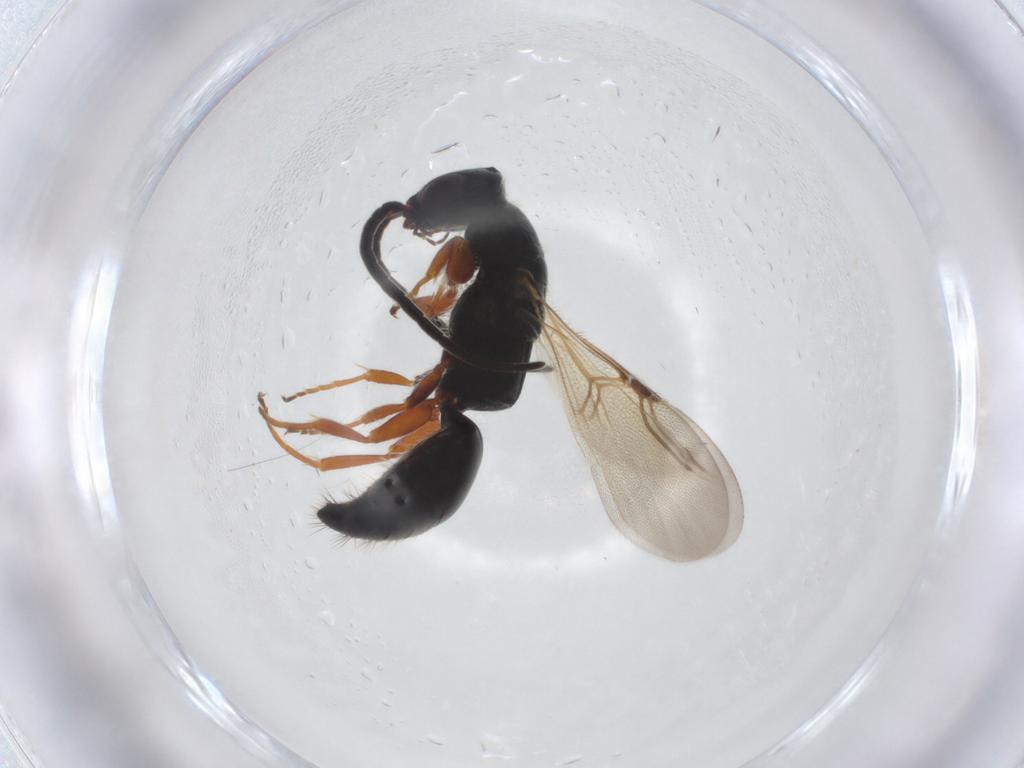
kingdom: Animalia
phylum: Arthropoda
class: Insecta
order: Hymenoptera
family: Bethylidae
